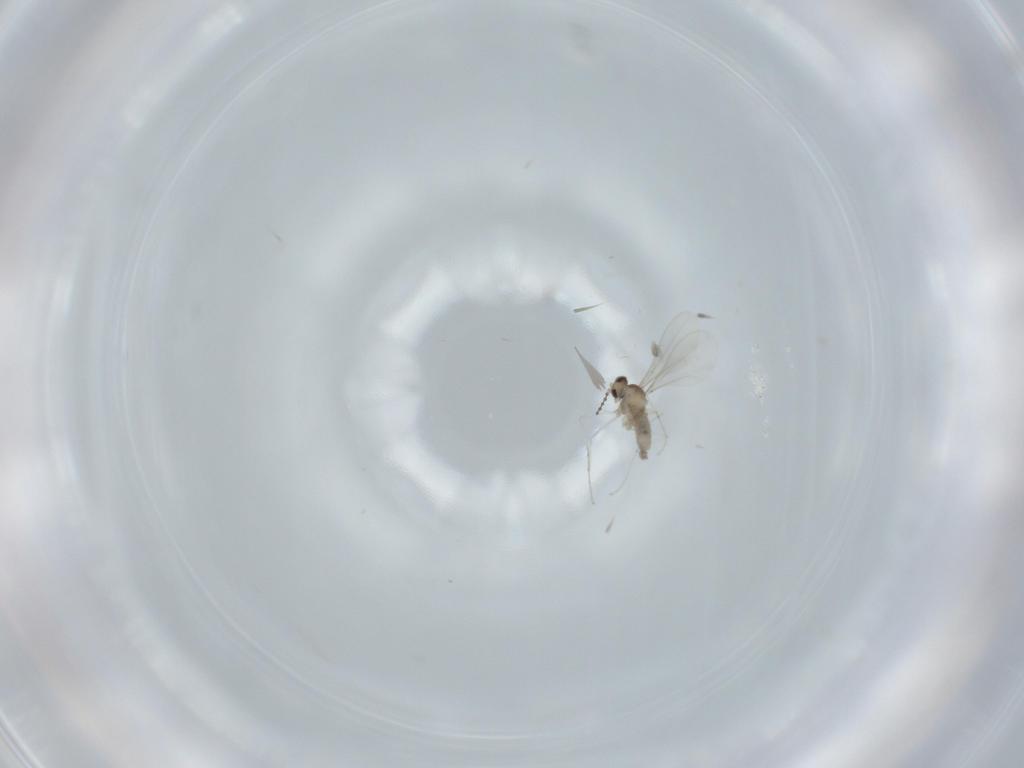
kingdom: Animalia
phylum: Arthropoda
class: Insecta
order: Diptera
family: Cecidomyiidae
